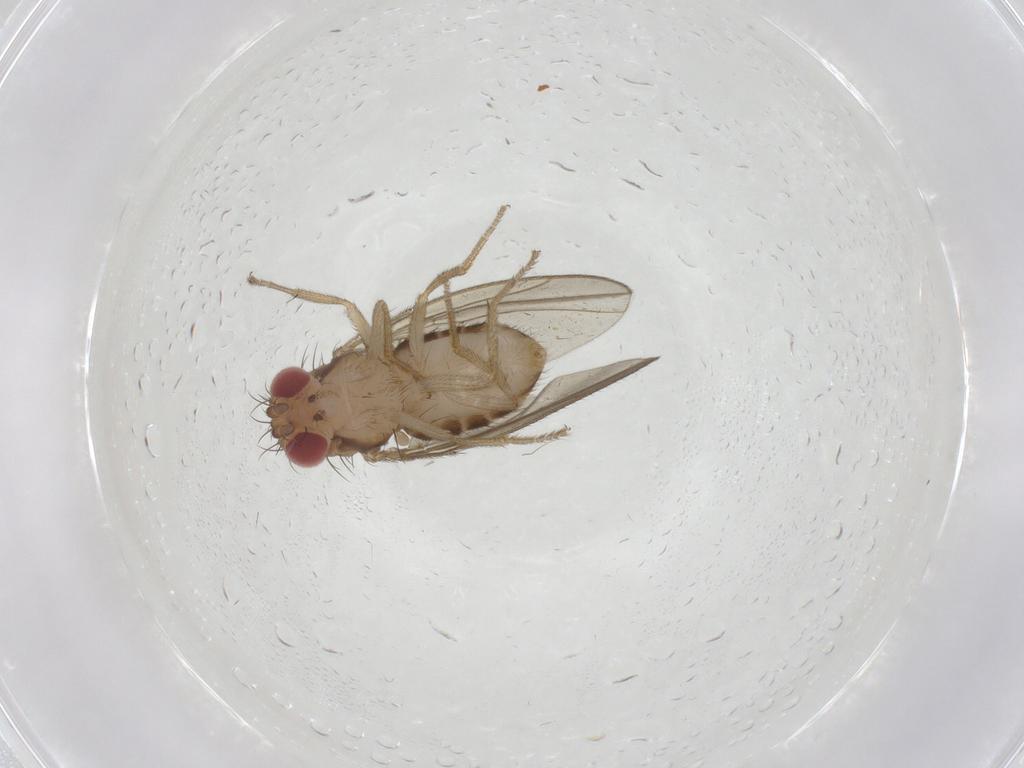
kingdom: Animalia
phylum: Arthropoda
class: Insecta
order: Diptera
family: Drosophilidae
